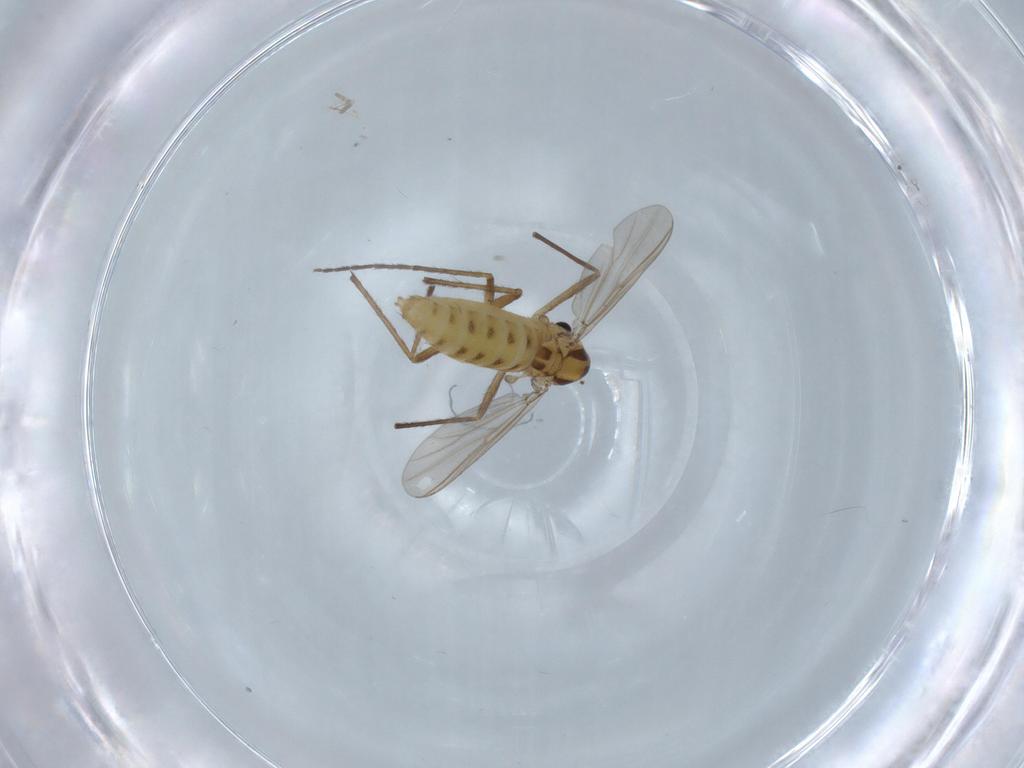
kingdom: Animalia
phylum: Arthropoda
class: Insecta
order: Diptera
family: Chironomidae
